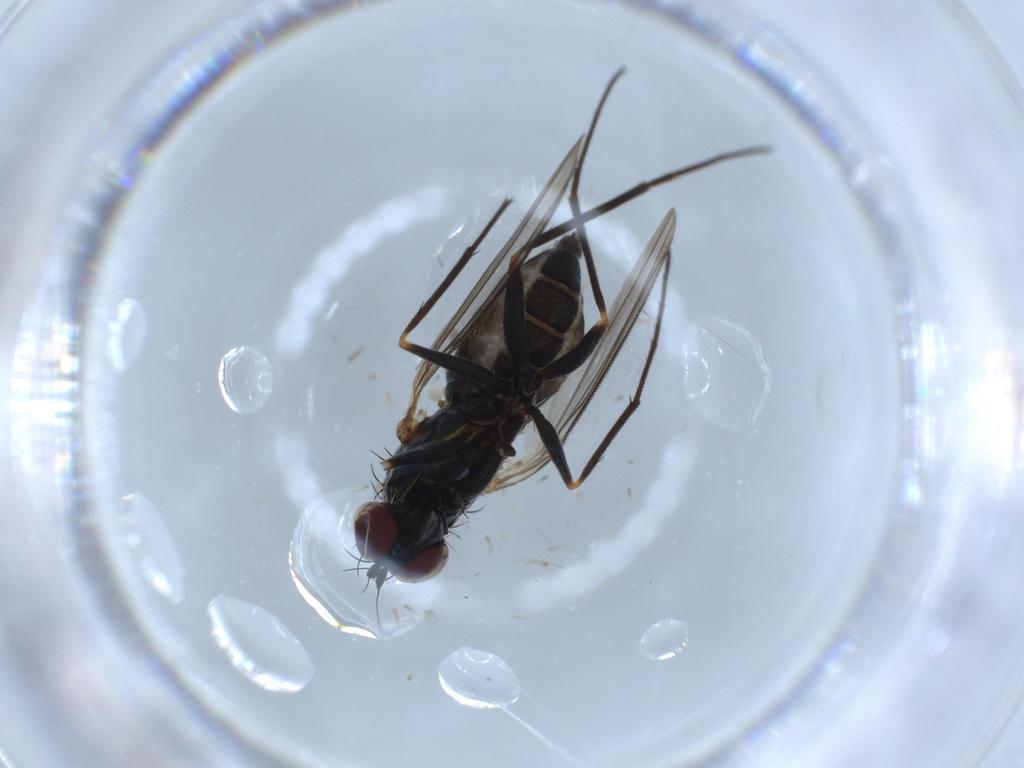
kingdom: Animalia
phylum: Arthropoda
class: Insecta
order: Diptera
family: Dolichopodidae
